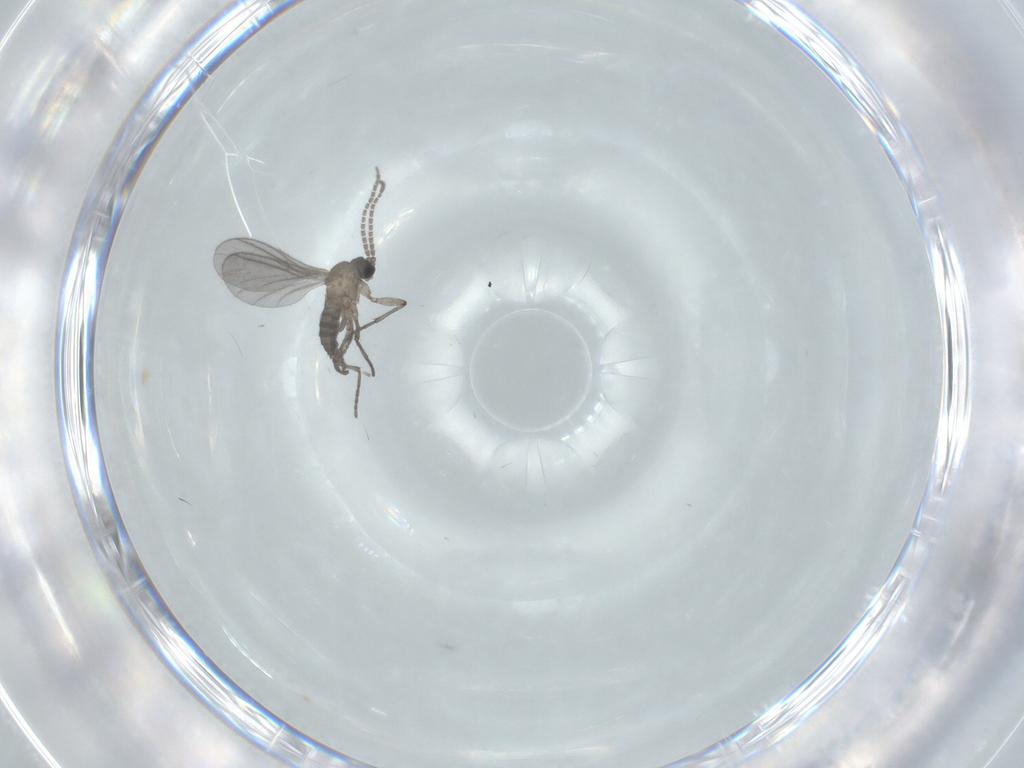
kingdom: Animalia
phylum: Arthropoda
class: Insecta
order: Diptera
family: Sciaridae
